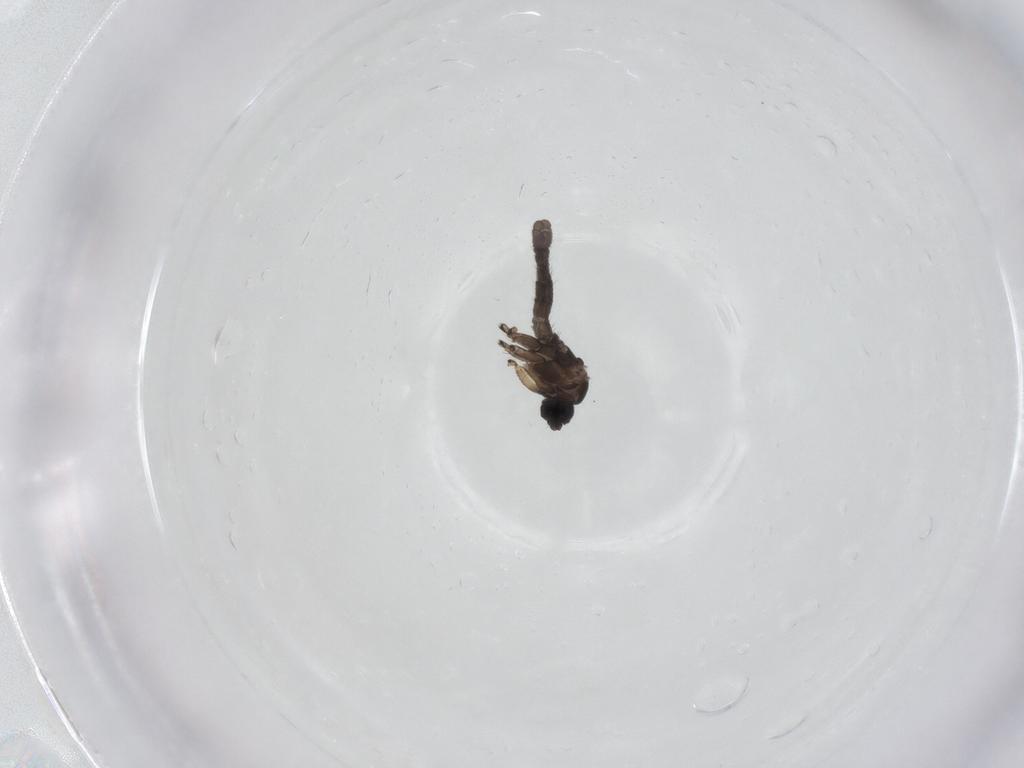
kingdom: Animalia
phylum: Arthropoda
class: Insecta
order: Diptera
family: Cecidomyiidae
